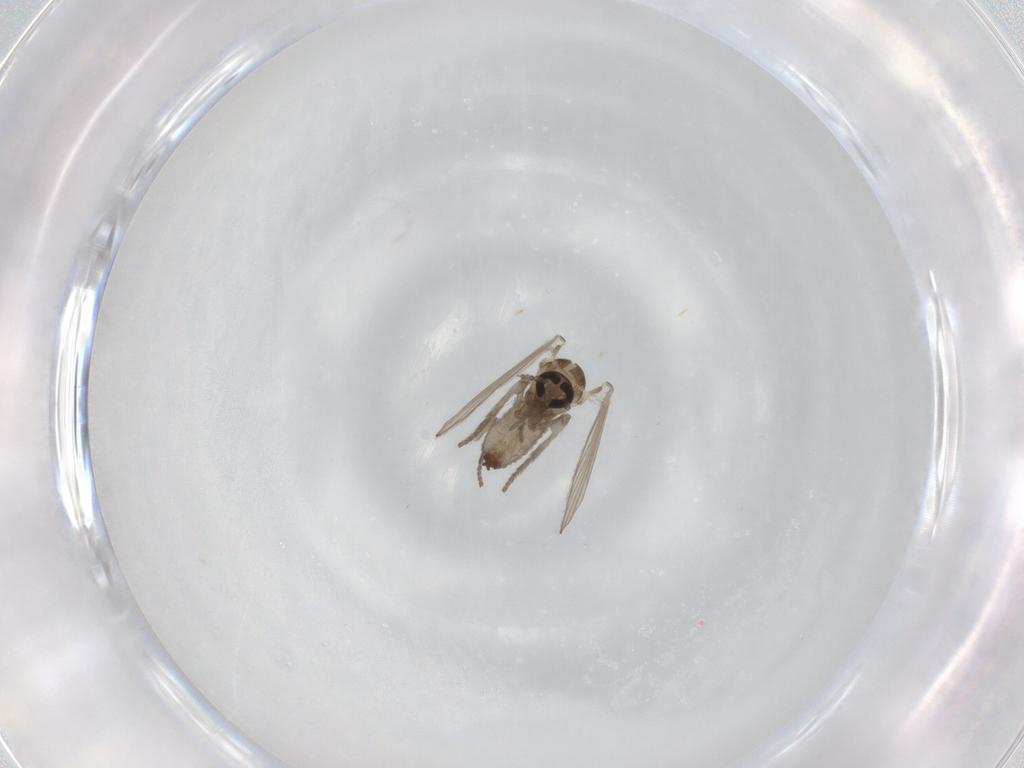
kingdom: Animalia
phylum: Arthropoda
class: Insecta
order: Diptera
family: Psychodidae
